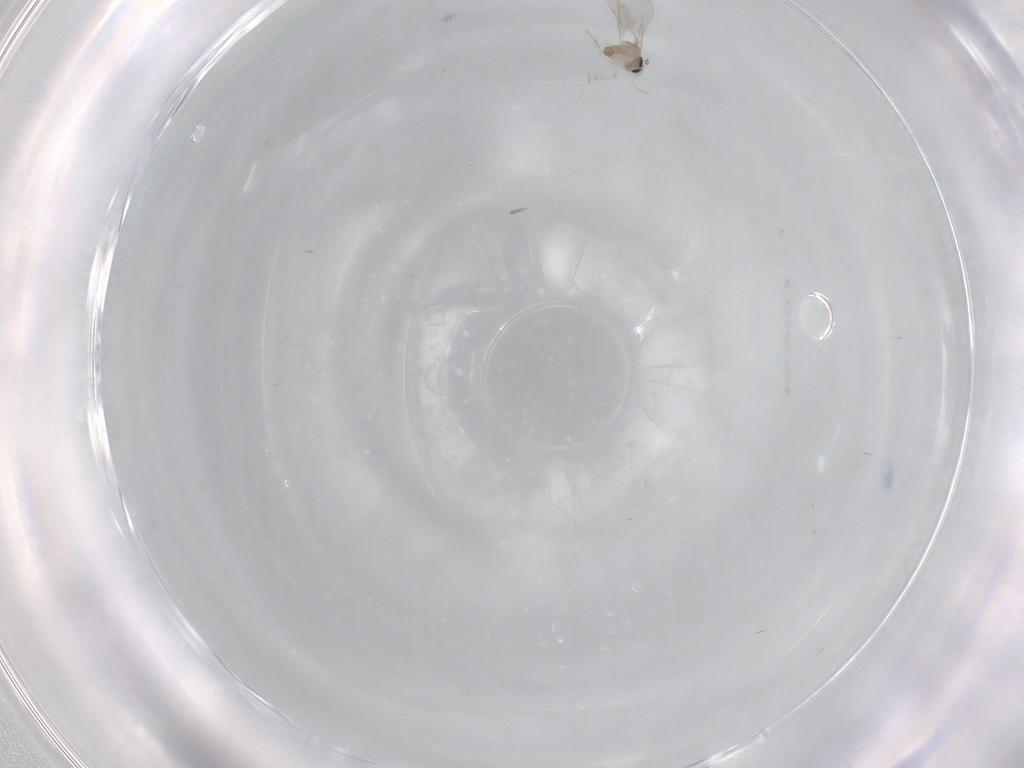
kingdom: Animalia
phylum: Arthropoda
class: Insecta
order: Diptera
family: Cecidomyiidae
